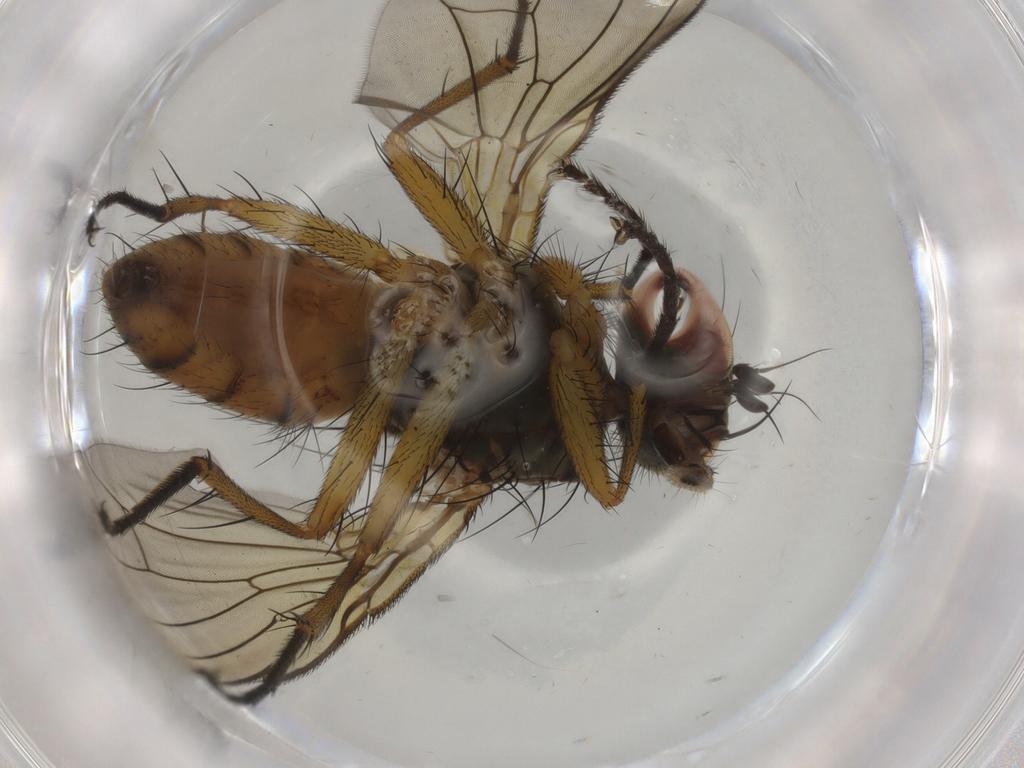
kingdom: Animalia
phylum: Arthropoda
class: Insecta
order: Diptera
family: Muscidae
